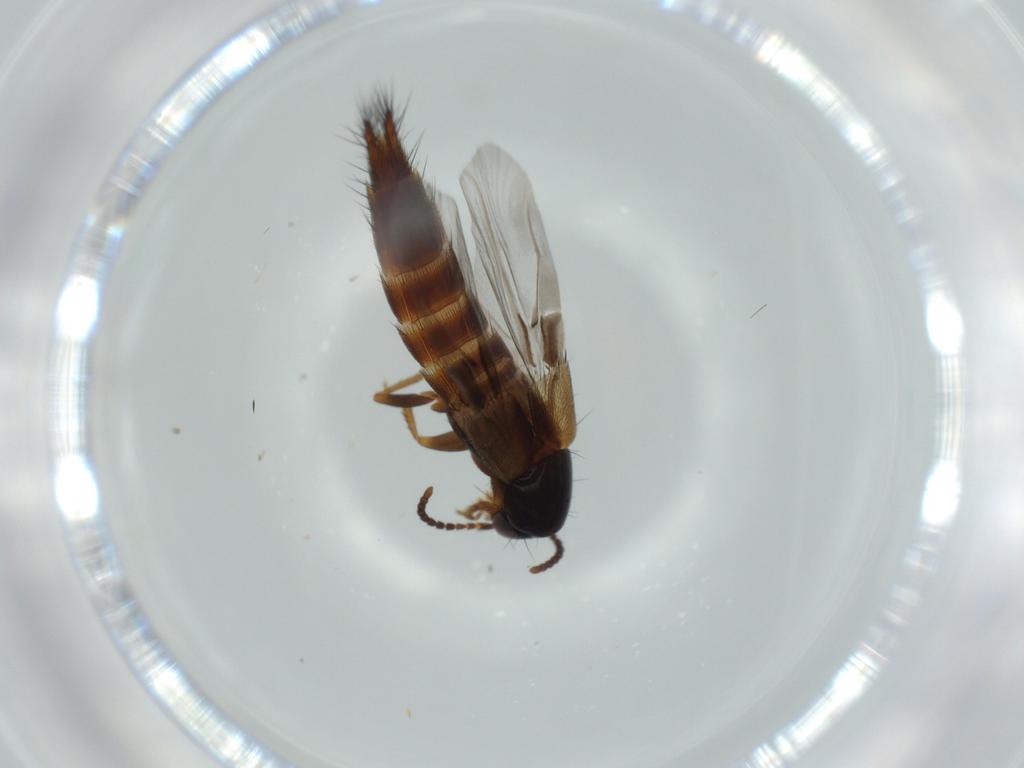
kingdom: Animalia
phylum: Arthropoda
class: Insecta
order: Coleoptera
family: Staphylinidae
